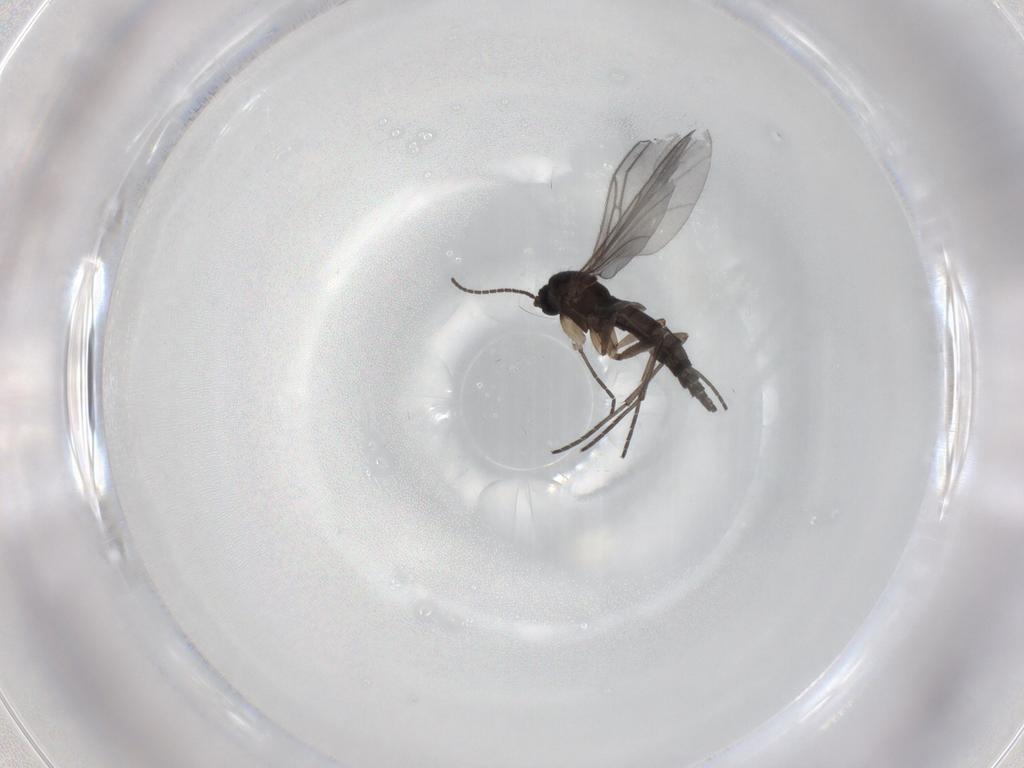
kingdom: Animalia
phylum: Arthropoda
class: Insecta
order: Diptera
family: Sciaridae
